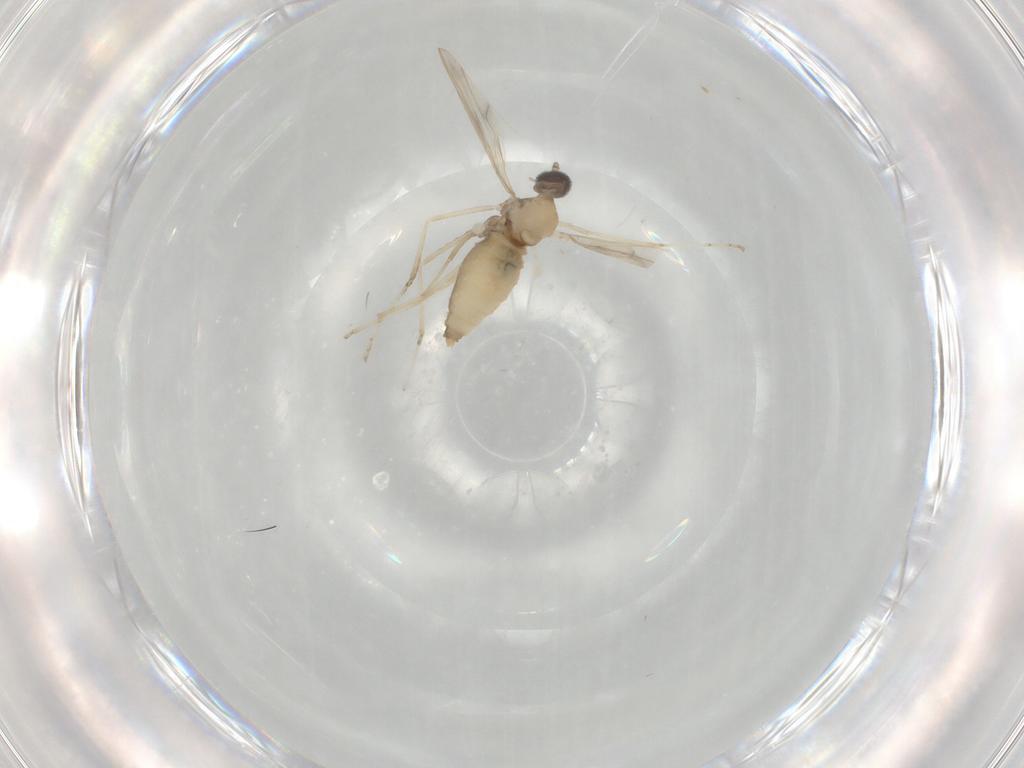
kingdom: Animalia
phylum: Arthropoda
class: Insecta
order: Diptera
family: Cecidomyiidae
